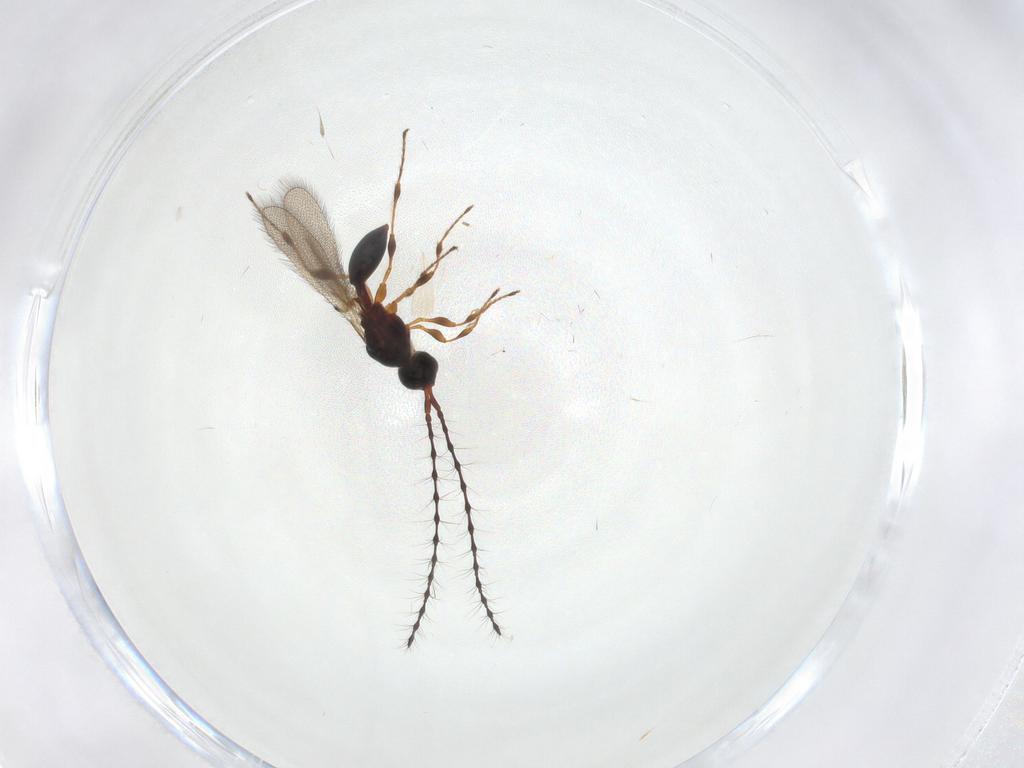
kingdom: Animalia
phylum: Arthropoda
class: Insecta
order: Hymenoptera
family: Diapriidae
